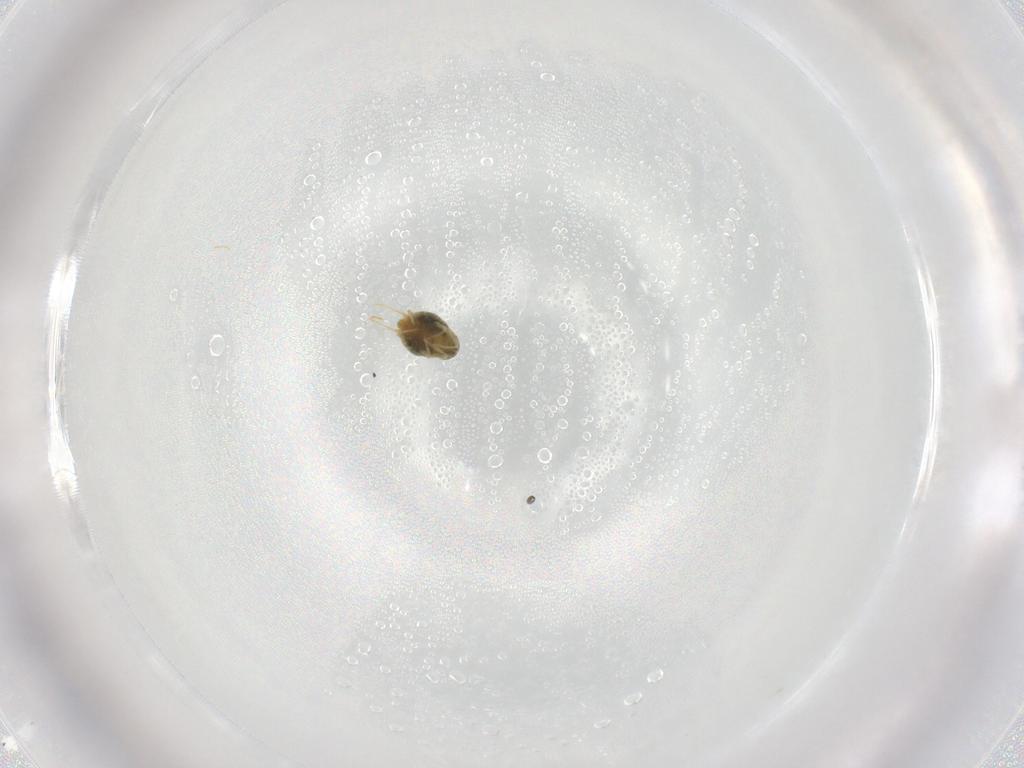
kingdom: Animalia
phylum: Arthropoda
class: Arachnida
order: Trombidiformes
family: Tetranychidae
